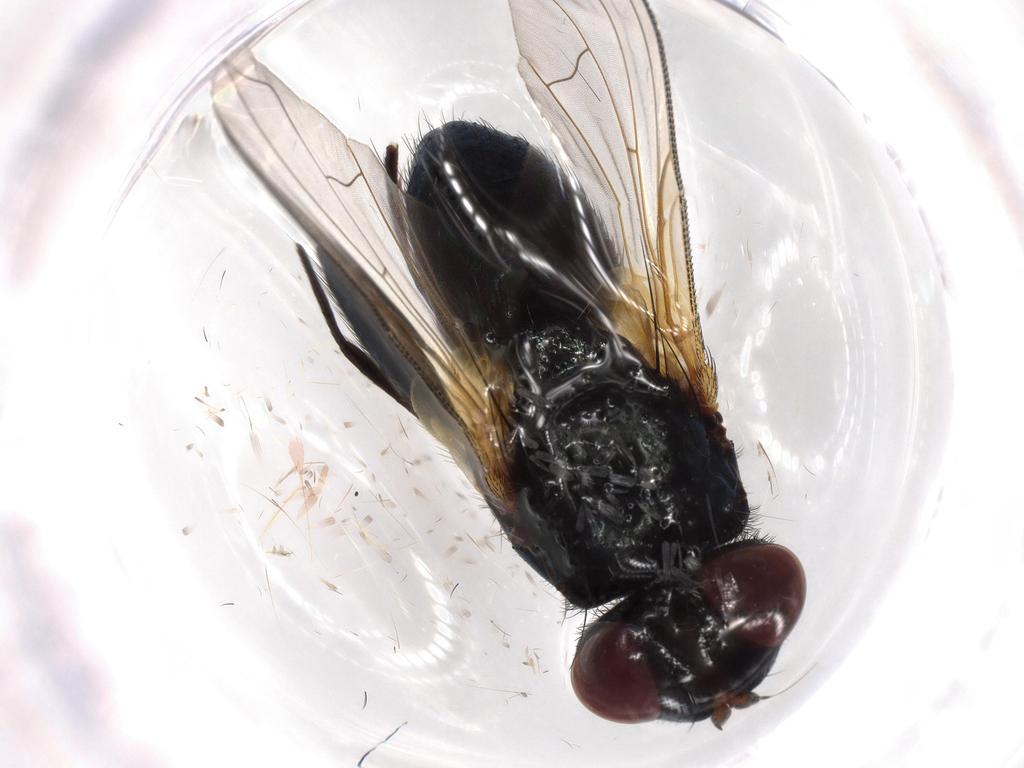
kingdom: Animalia
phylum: Arthropoda
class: Insecta
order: Diptera
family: Tachinidae
